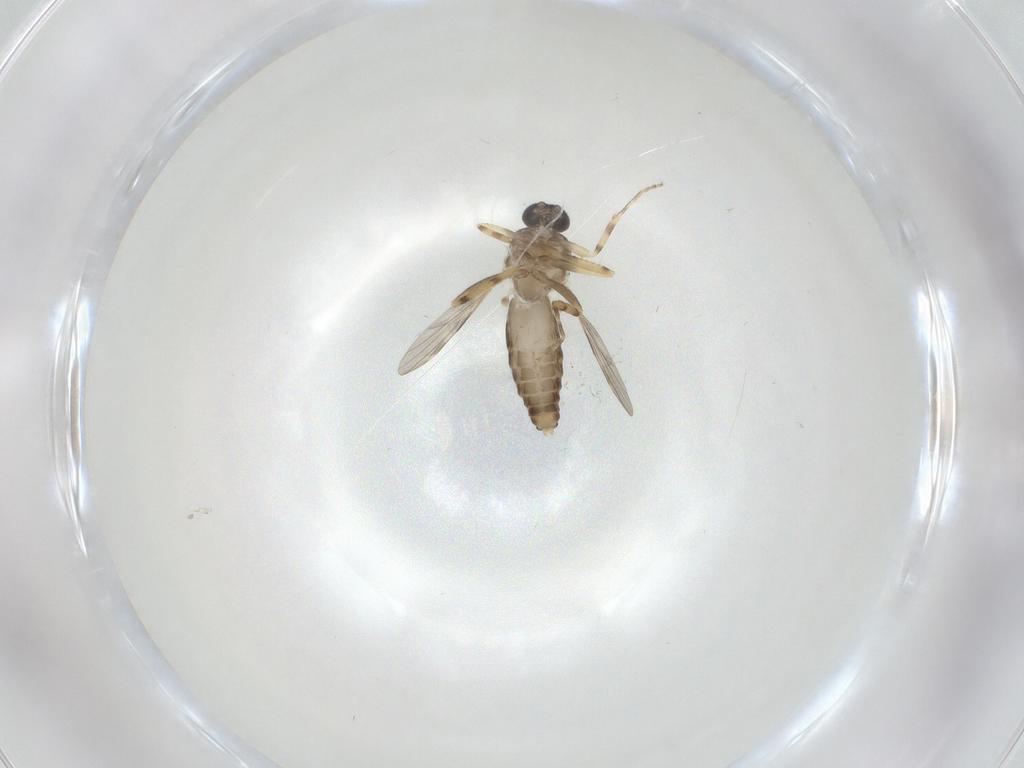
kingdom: Animalia
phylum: Arthropoda
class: Insecta
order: Diptera
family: Ceratopogonidae
